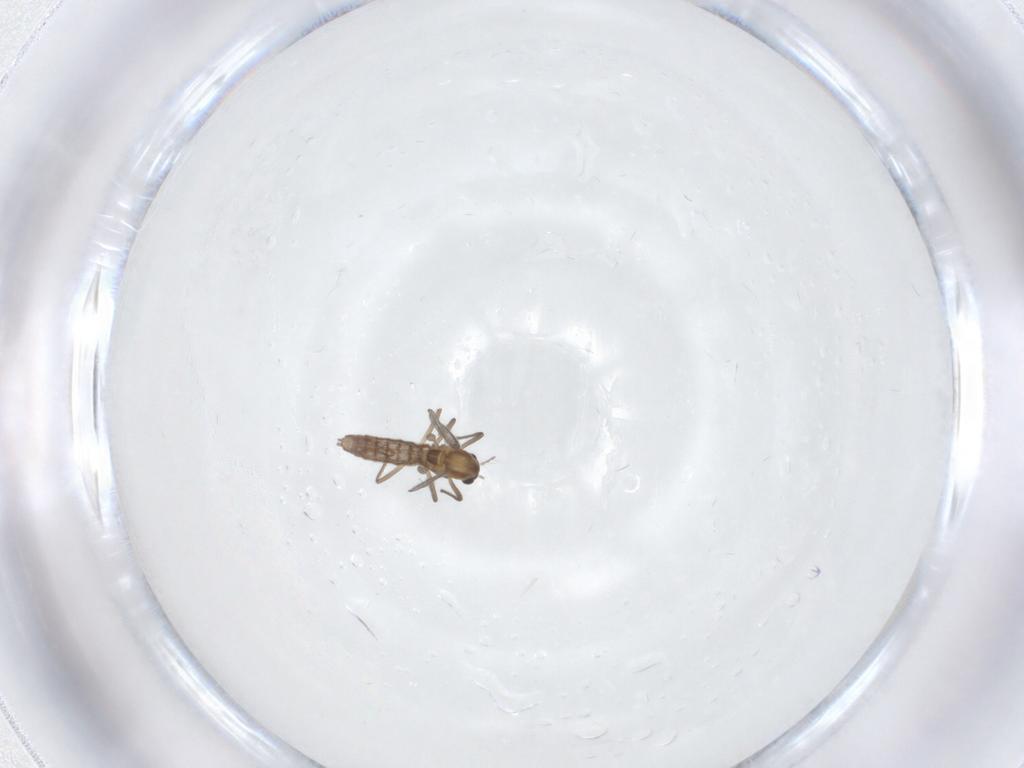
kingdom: Animalia
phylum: Arthropoda
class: Insecta
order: Diptera
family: Chironomidae
